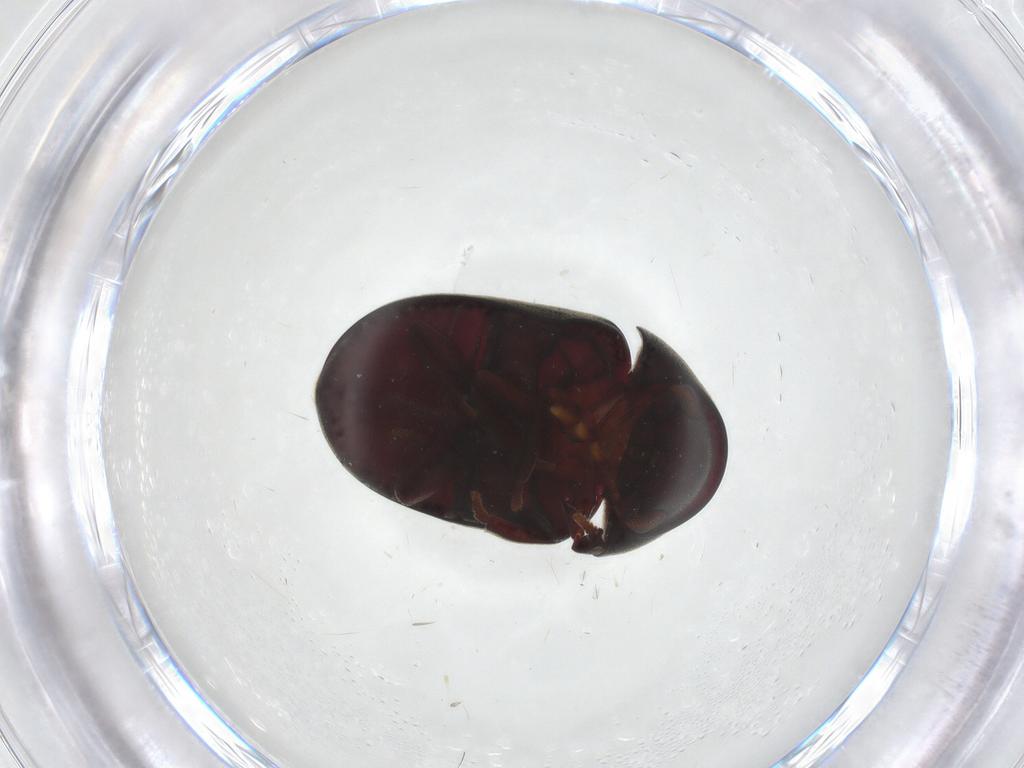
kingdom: Animalia
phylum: Arthropoda
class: Insecta
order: Coleoptera
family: Ptinidae
